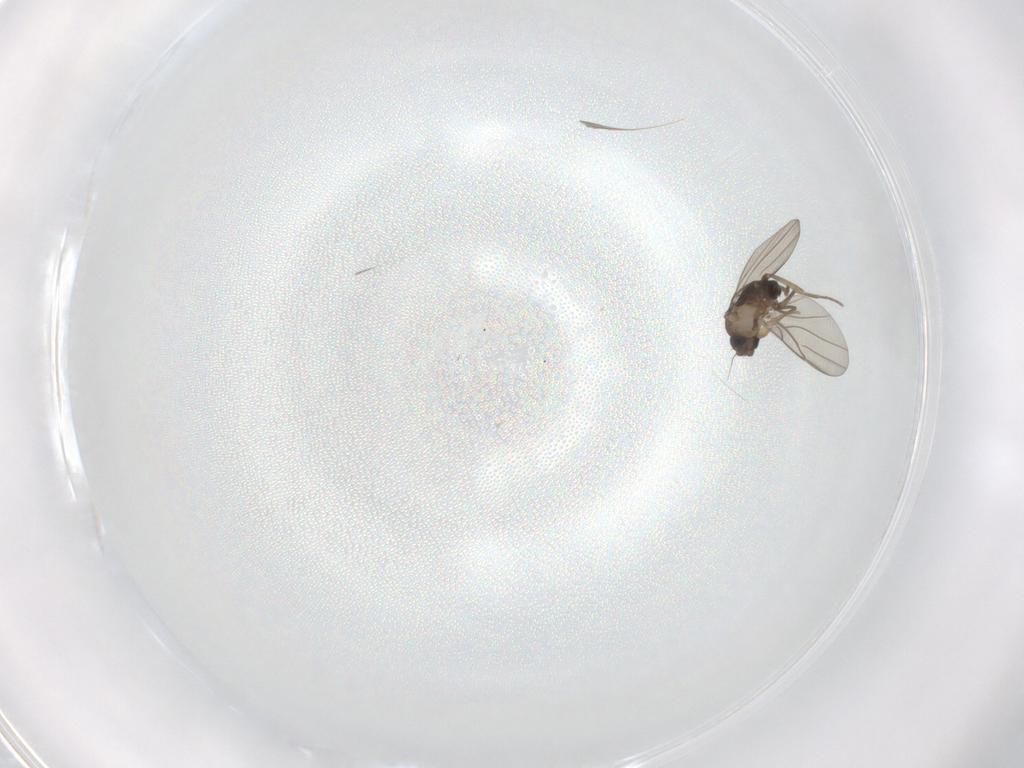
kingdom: Animalia
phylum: Arthropoda
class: Insecta
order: Diptera
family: Phoridae
